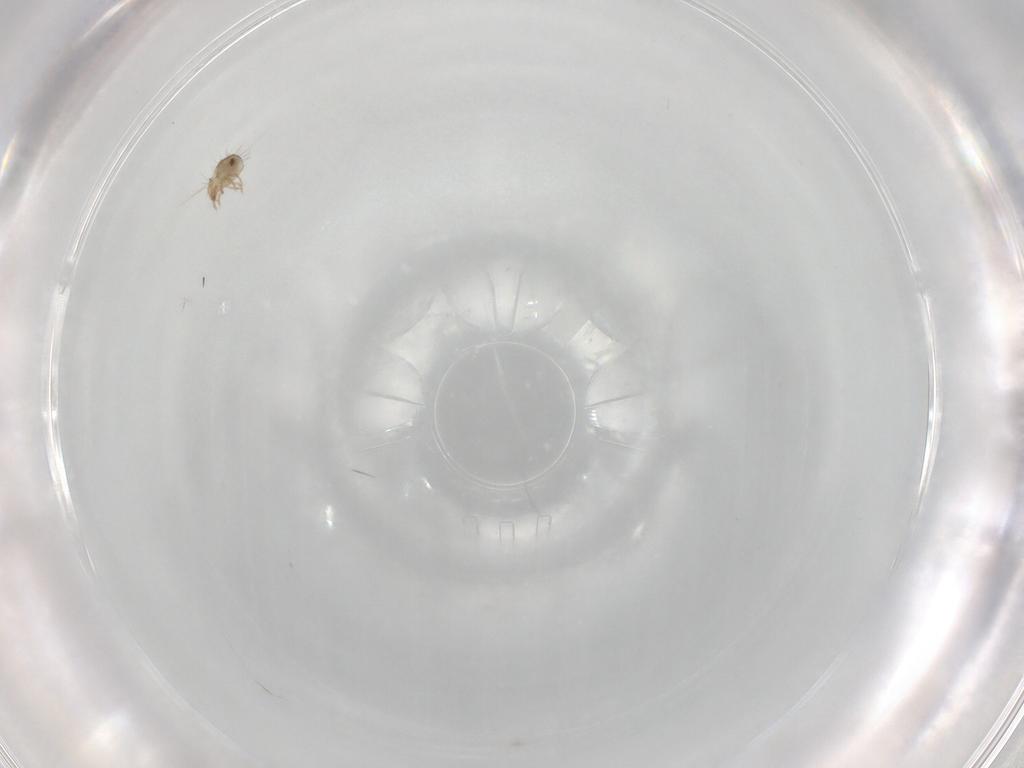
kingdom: Animalia
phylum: Arthropoda
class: Arachnida
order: Sarcoptiformes
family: Humerobatidae
